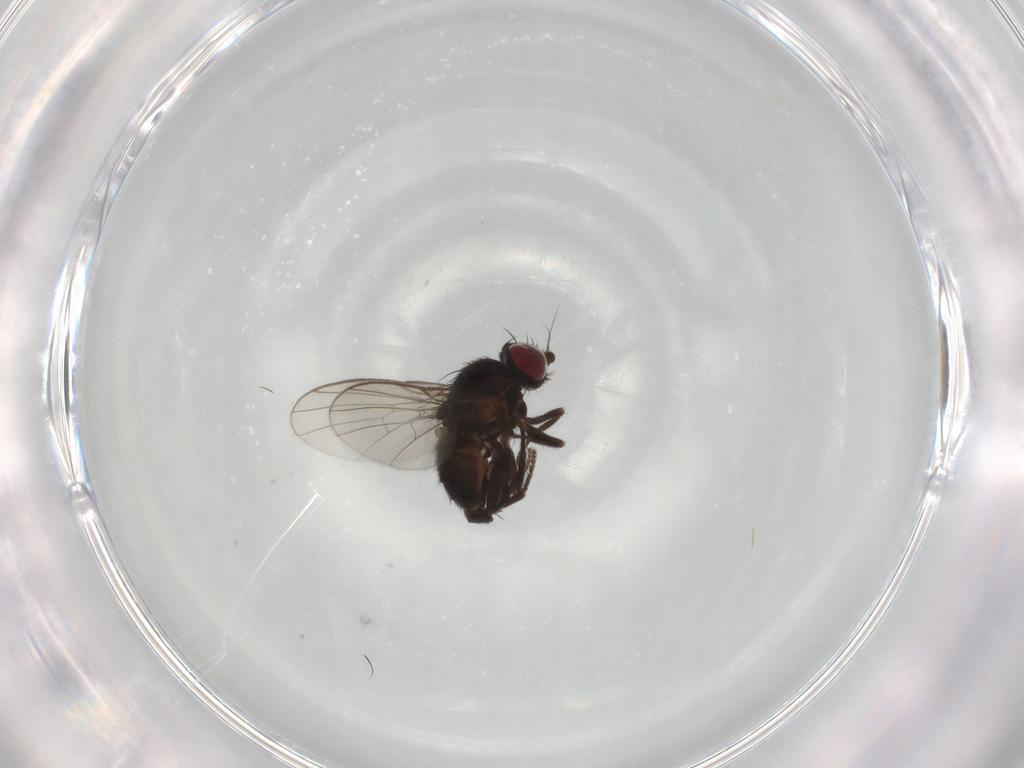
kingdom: Animalia
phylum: Arthropoda
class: Insecta
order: Diptera
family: Agromyzidae
